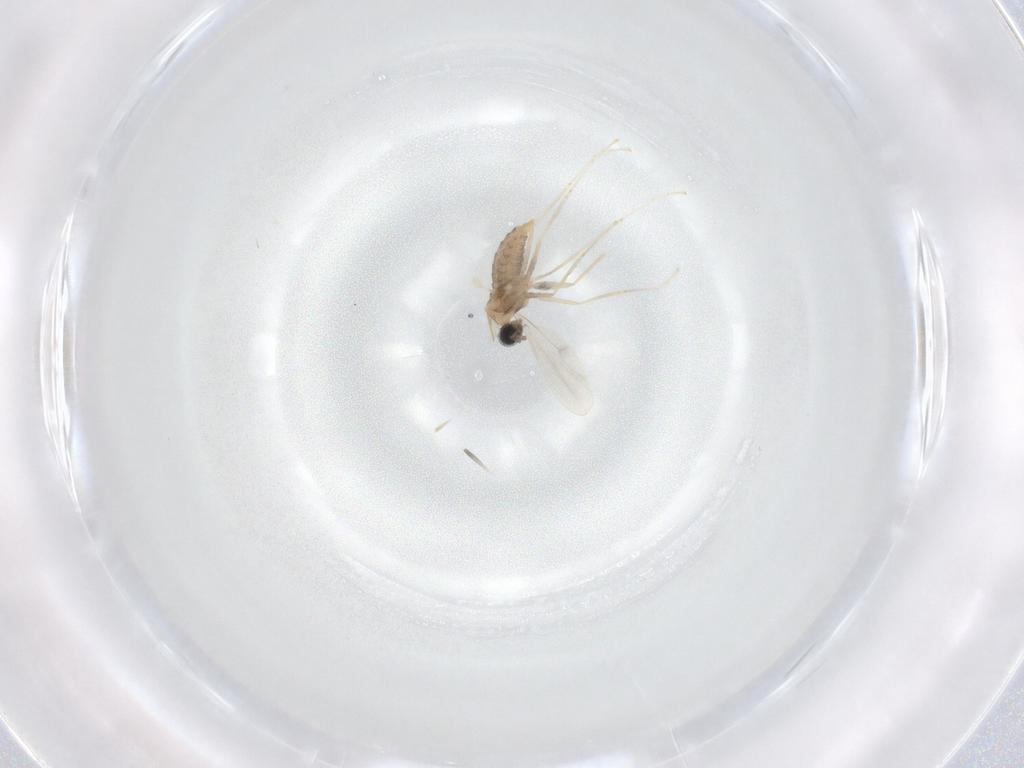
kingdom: Animalia
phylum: Arthropoda
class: Insecta
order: Diptera
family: Cecidomyiidae
